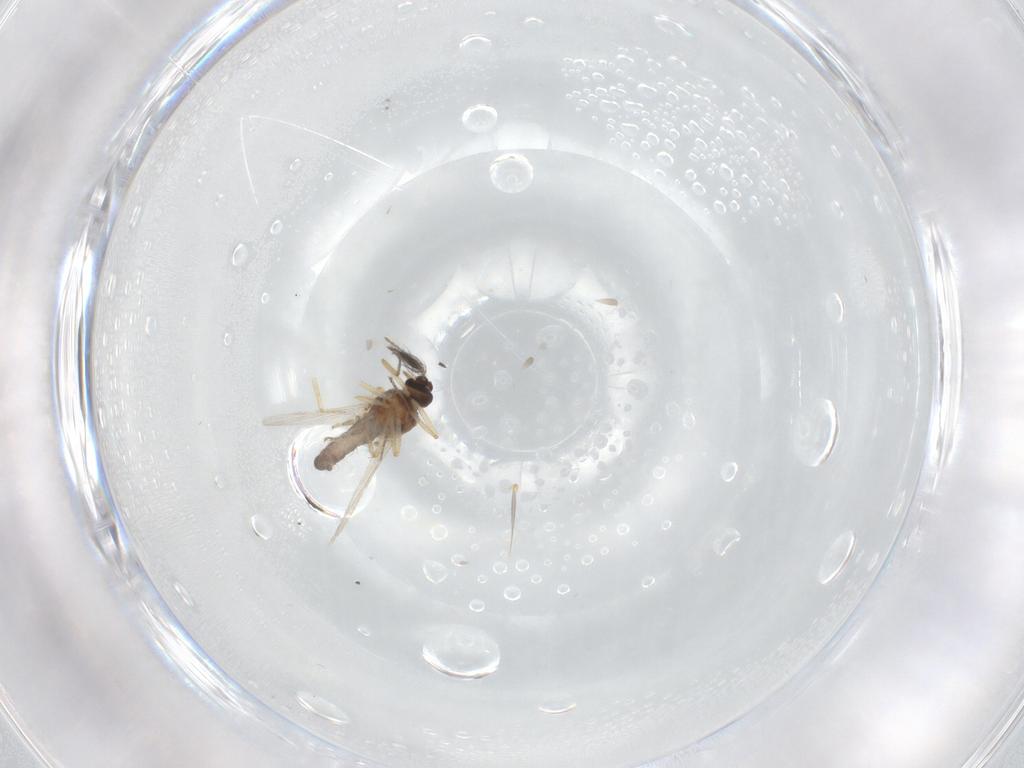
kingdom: Animalia
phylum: Arthropoda
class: Insecta
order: Diptera
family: Ceratopogonidae
